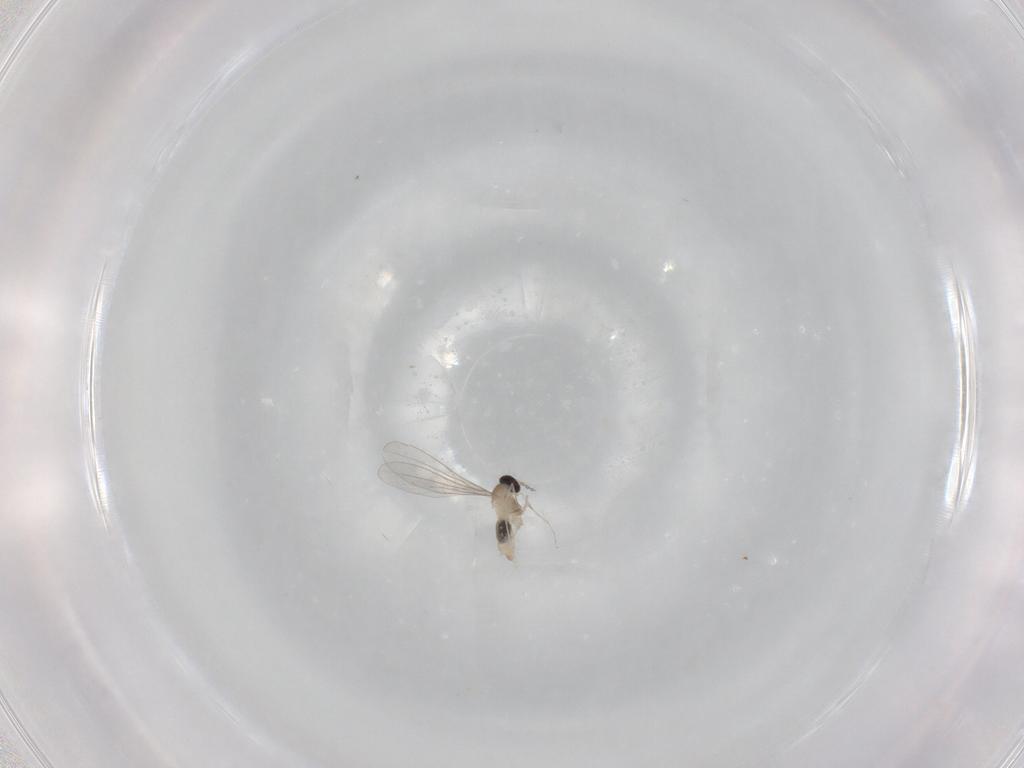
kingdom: Animalia
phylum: Arthropoda
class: Insecta
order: Diptera
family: Cecidomyiidae
